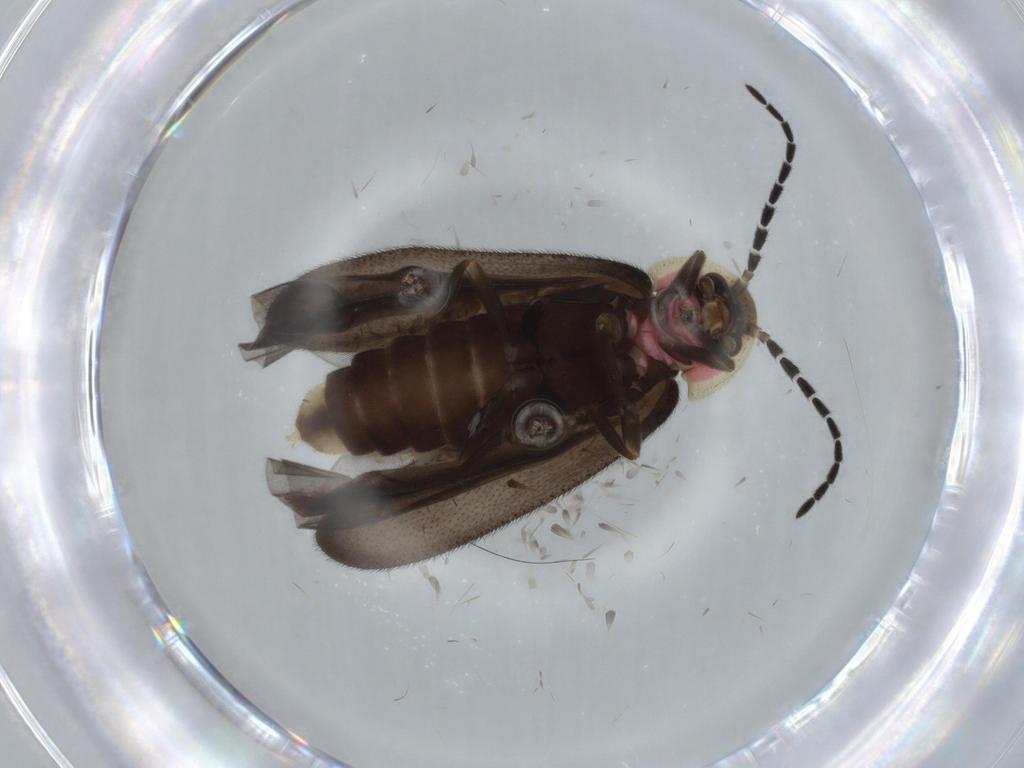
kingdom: Animalia
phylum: Arthropoda
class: Insecta
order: Coleoptera
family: Lampyridae
